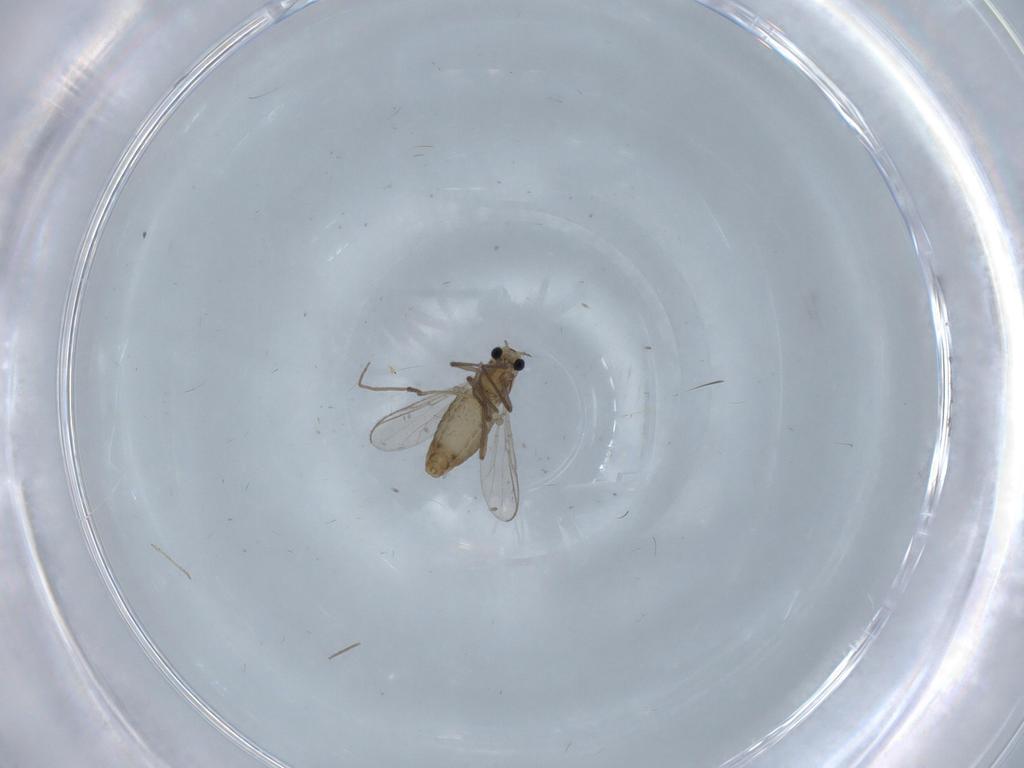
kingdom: Animalia
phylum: Arthropoda
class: Insecta
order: Diptera
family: Chironomidae
